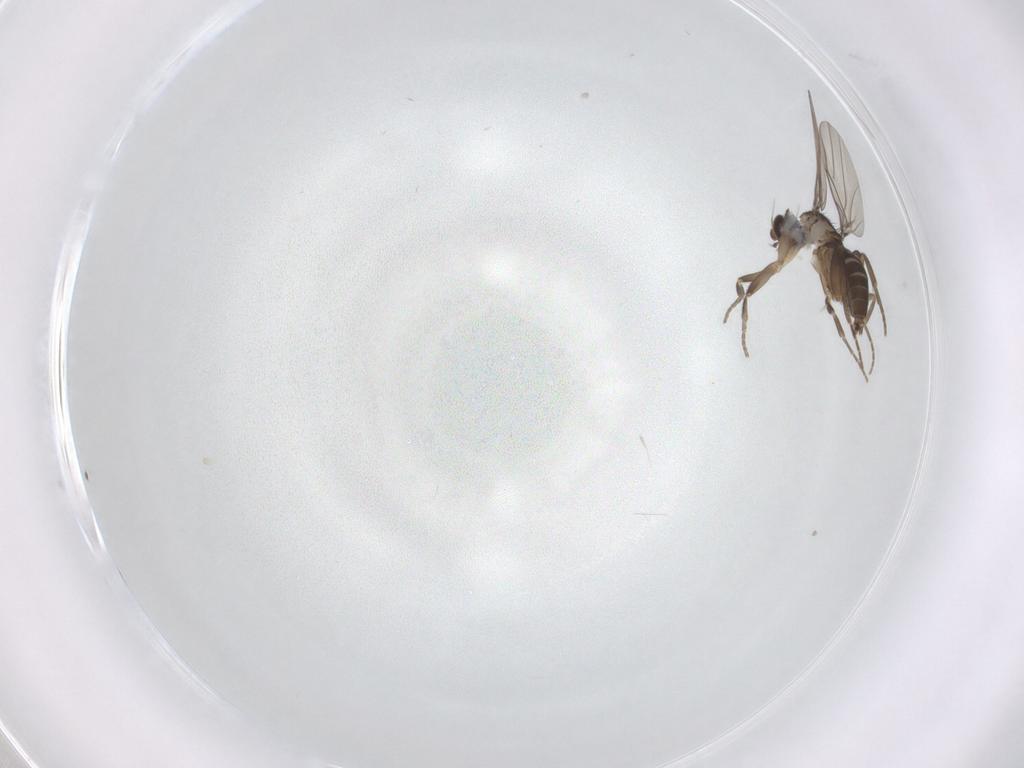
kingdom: Animalia
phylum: Arthropoda
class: Insecta
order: Diptera
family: Phoridae
